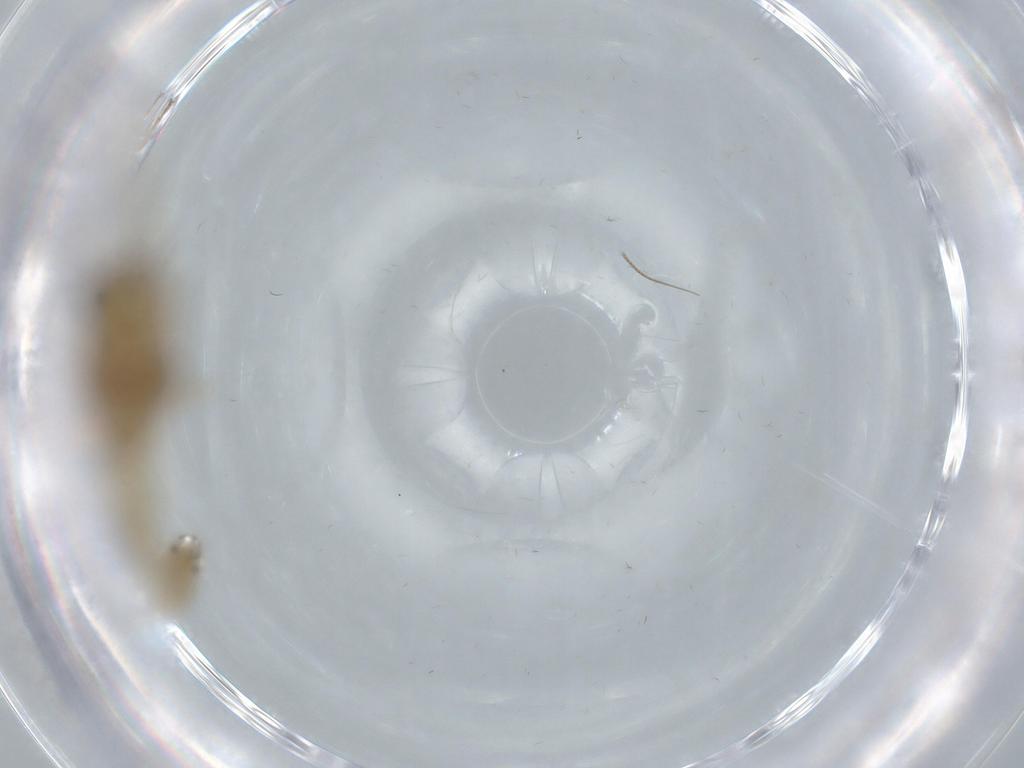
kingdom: Animalia
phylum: Arthropoda
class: Insecta
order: Diptera
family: Chironomidae
